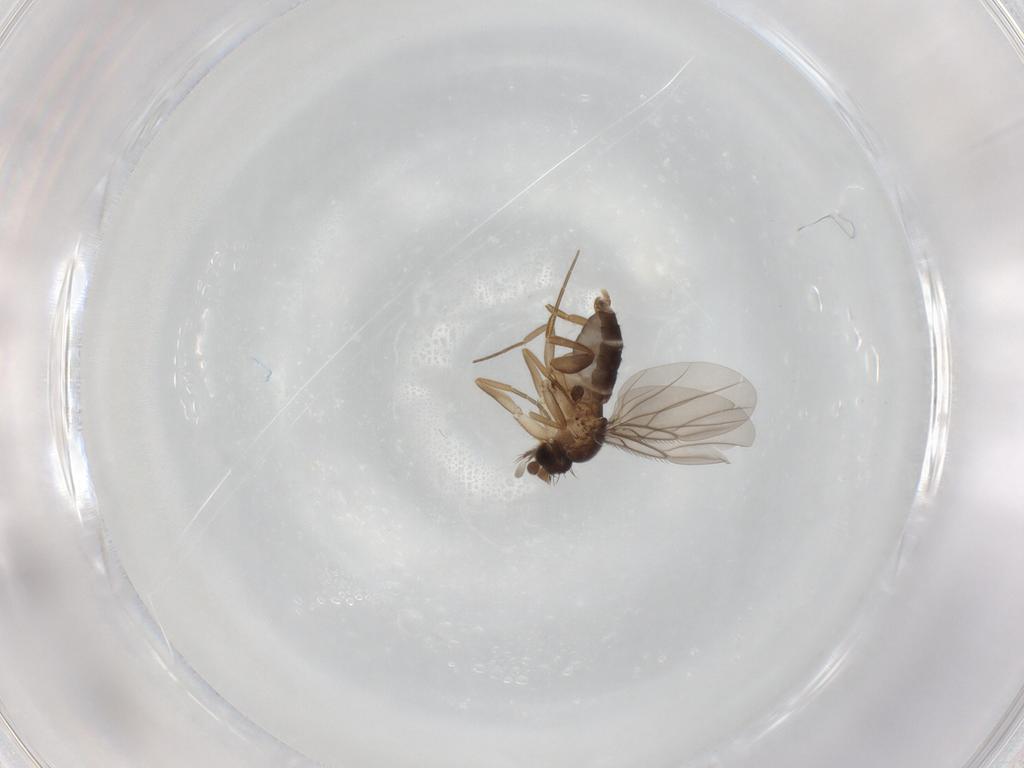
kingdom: Animalia
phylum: Arthropoda
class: Insecta
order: Diptera
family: Phoridae
